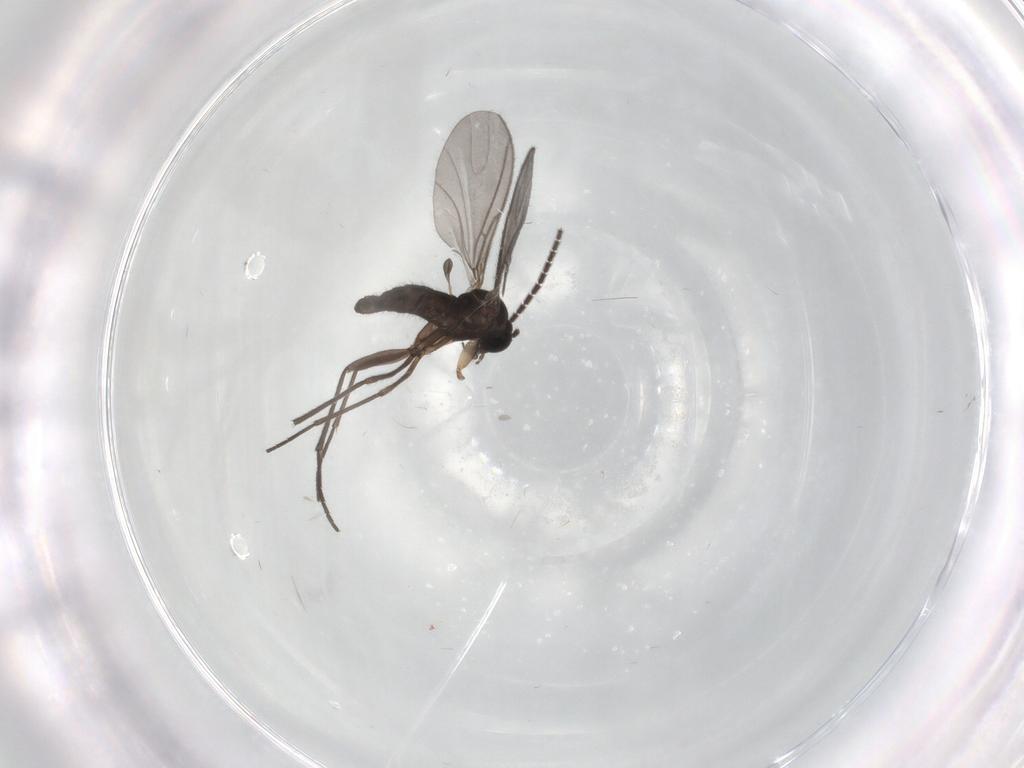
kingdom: Animalia
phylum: Arthropoda
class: Insecta
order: Diptera
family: Cecidomyiidae
